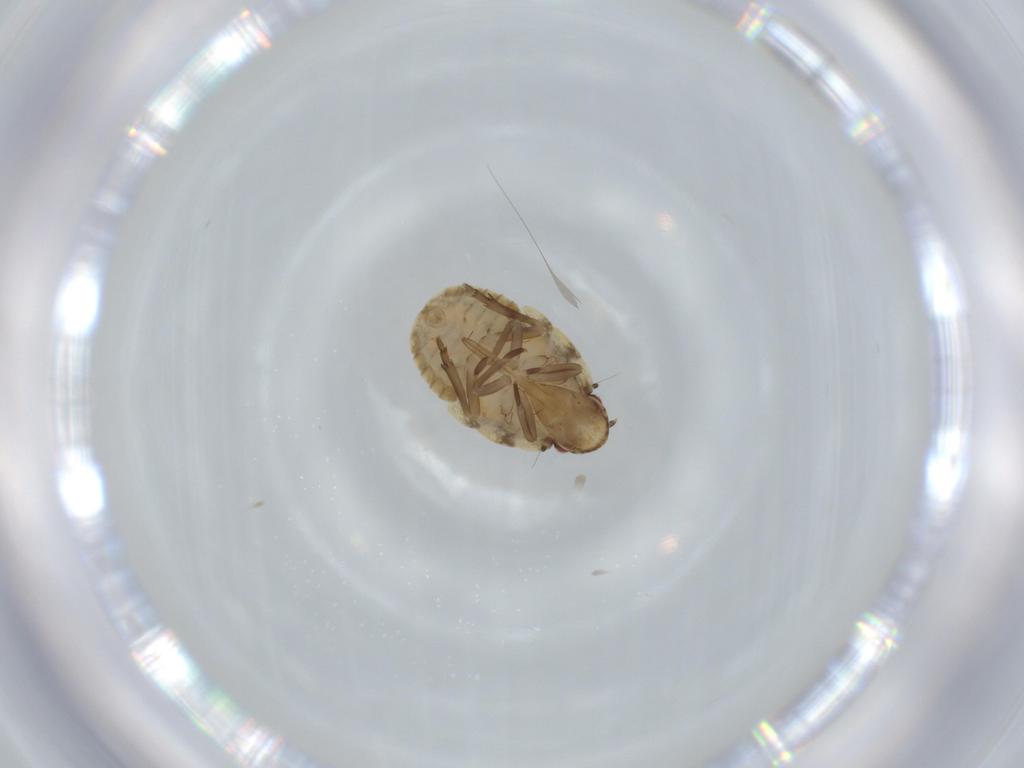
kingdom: Animalia
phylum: Arthropoda
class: Insecta
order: Hemiptera
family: Flatidae
